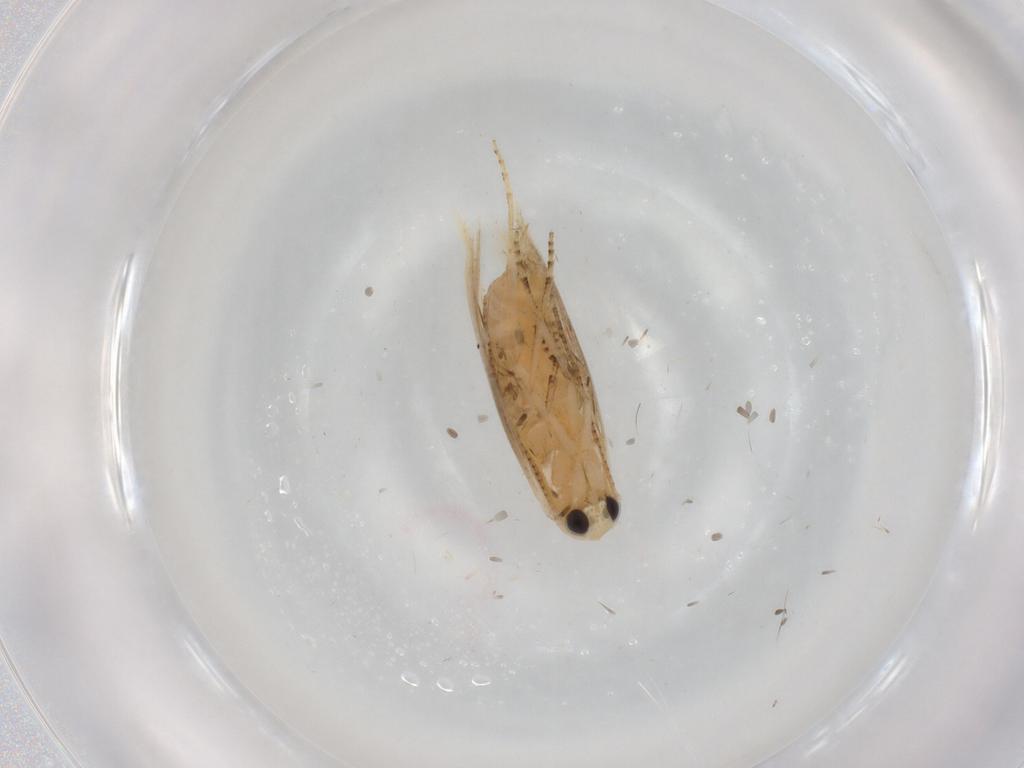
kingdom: Animalia
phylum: Arthropoda
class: Insecta
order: Lepidoptera
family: Bucculatricidae
